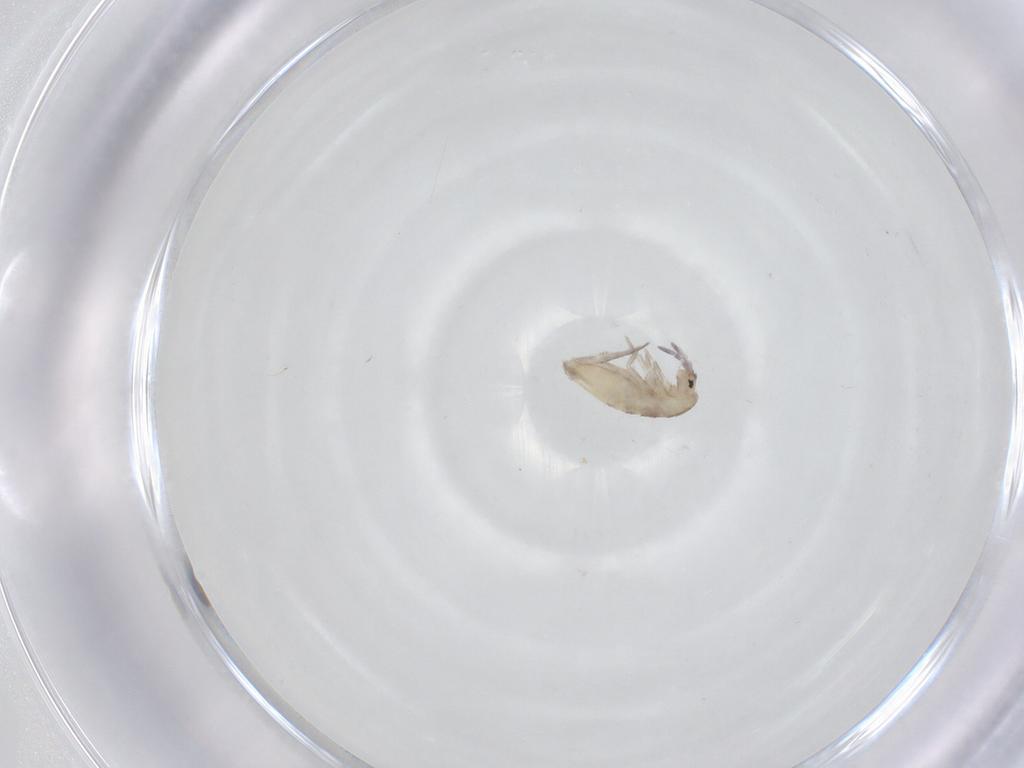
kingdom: Animalia
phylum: Arthropoda
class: Collembola
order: Entomobryomorpha
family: Entomobryidae
